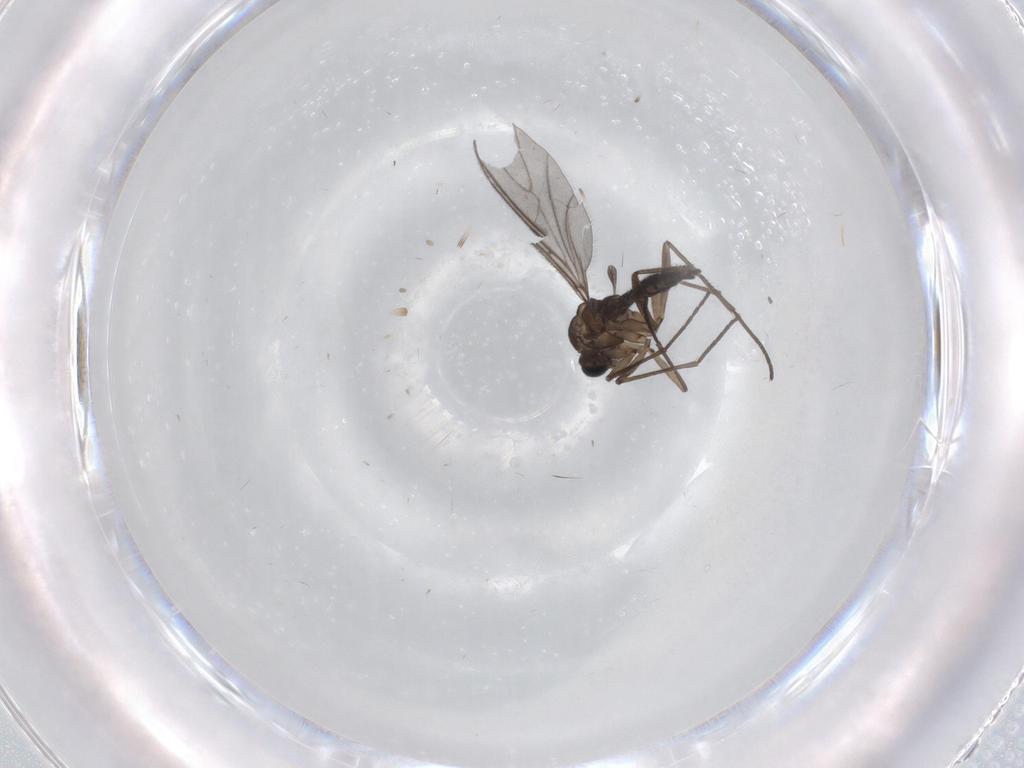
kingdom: Animalia
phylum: Arthropoda
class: Insecta
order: Diptera
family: Sciaridae
